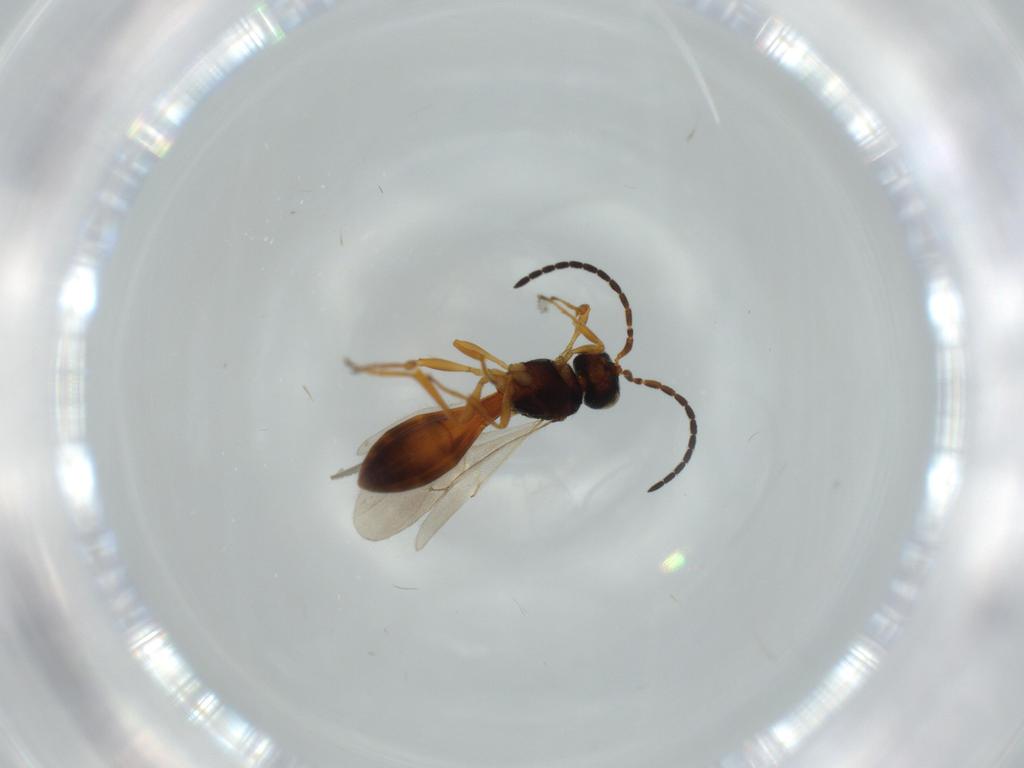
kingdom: Animalia
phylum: Arthropoda
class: Insecta
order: Hymenoptera
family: Mymaridae
